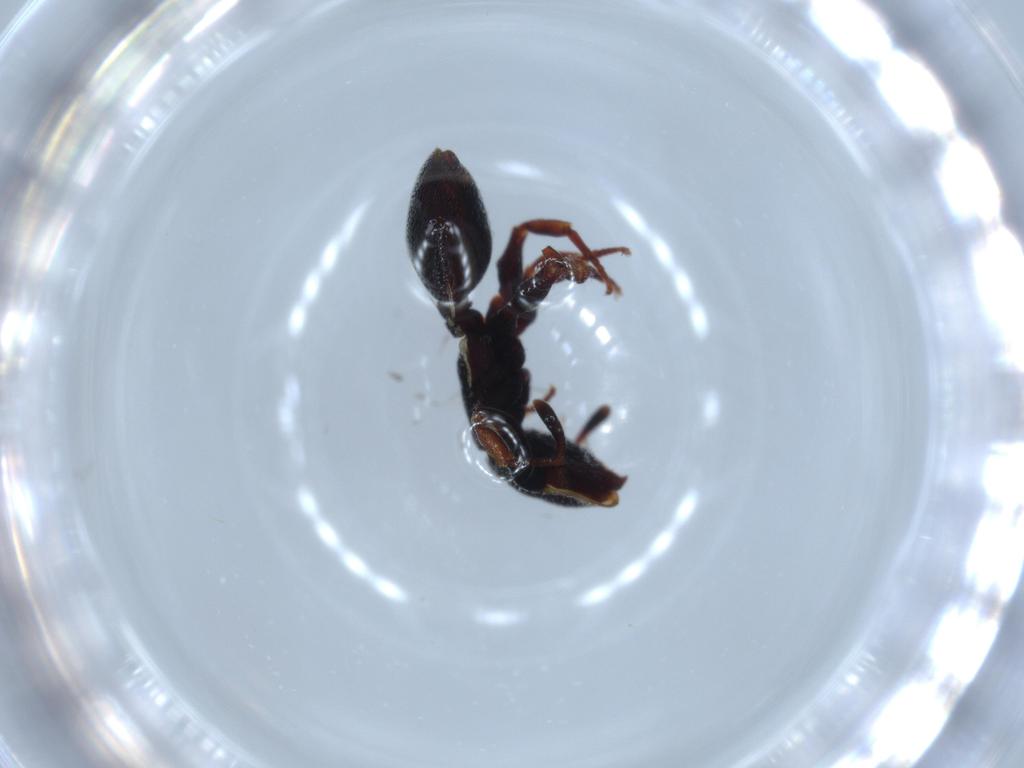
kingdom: Animalia
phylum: Arthropoda
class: Insecta
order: Hymenoptera
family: Formicidae
